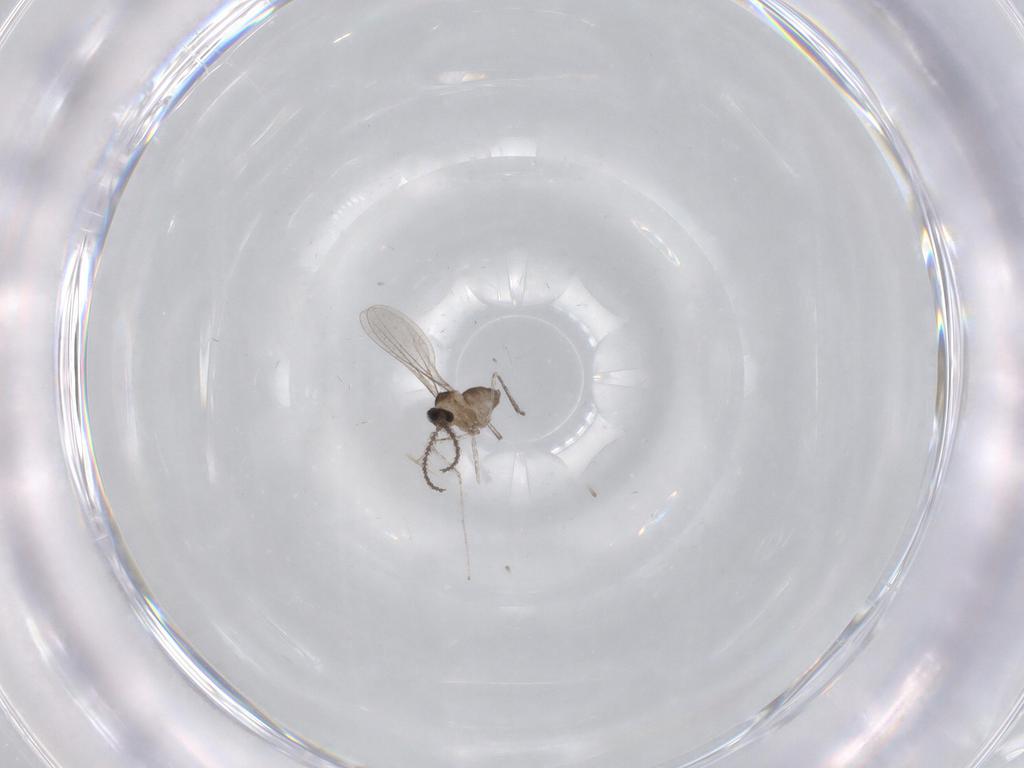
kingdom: Animalia
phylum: Arthropoda
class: Insecta
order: Diptera
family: Cecidomyiidae
